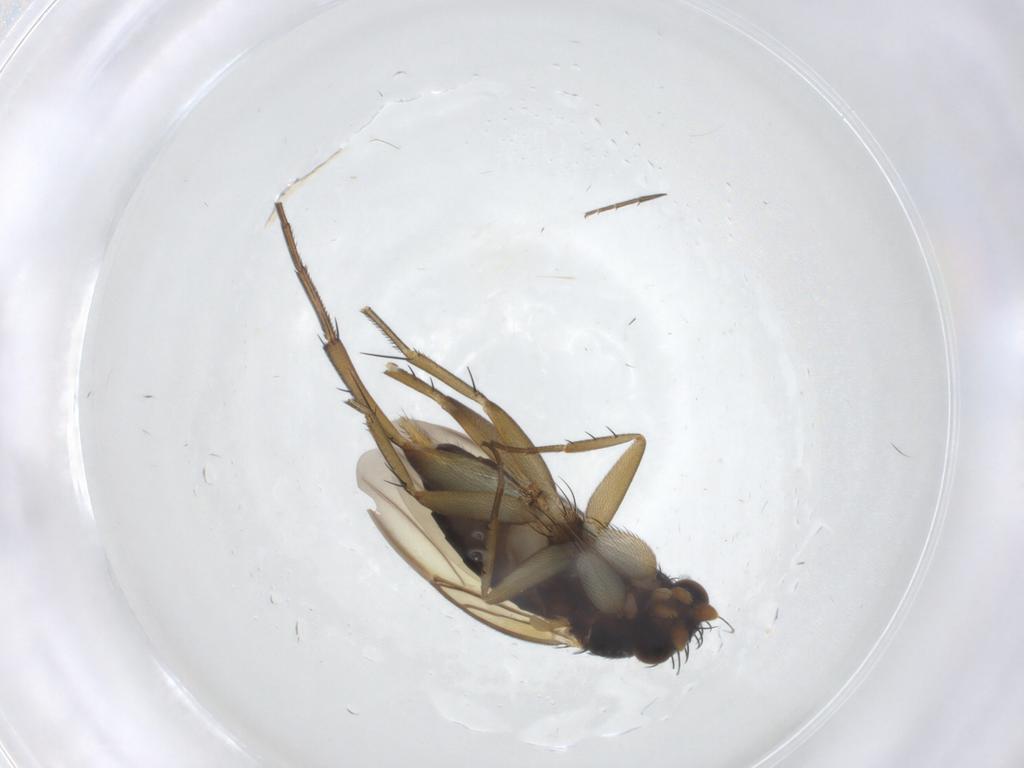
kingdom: Animalia
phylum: Arthropoda
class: Insecta
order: Diptera
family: Phoridae
